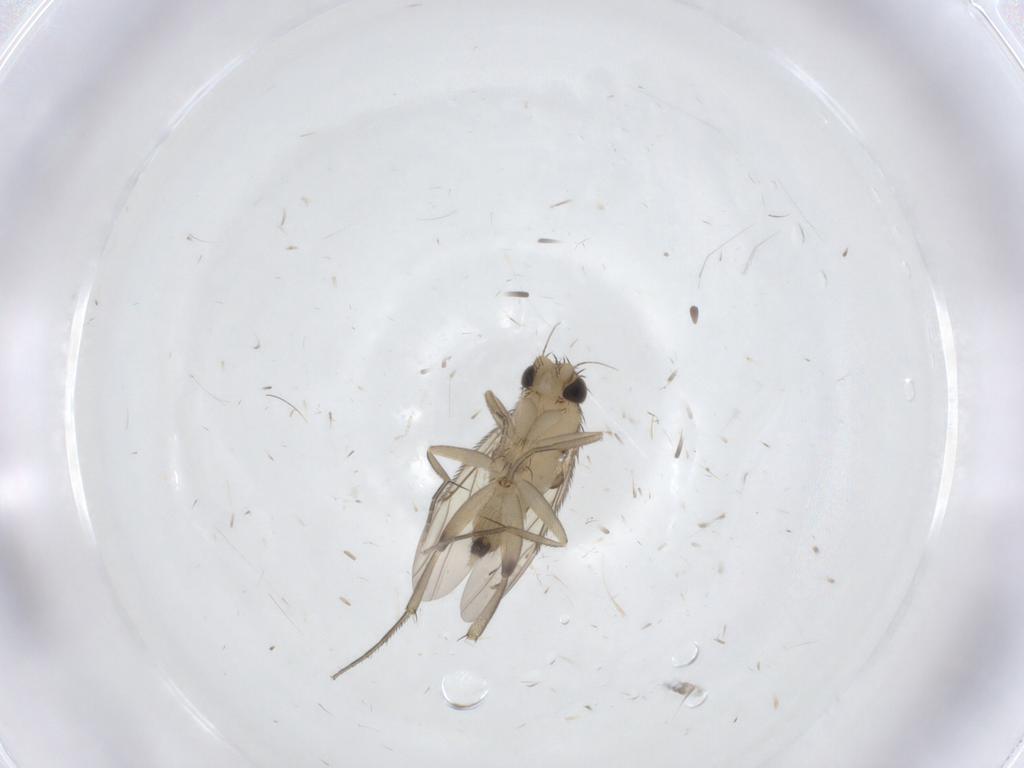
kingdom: Animalia
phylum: Arthropoda
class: Insecta
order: Diptera
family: Phoridae
